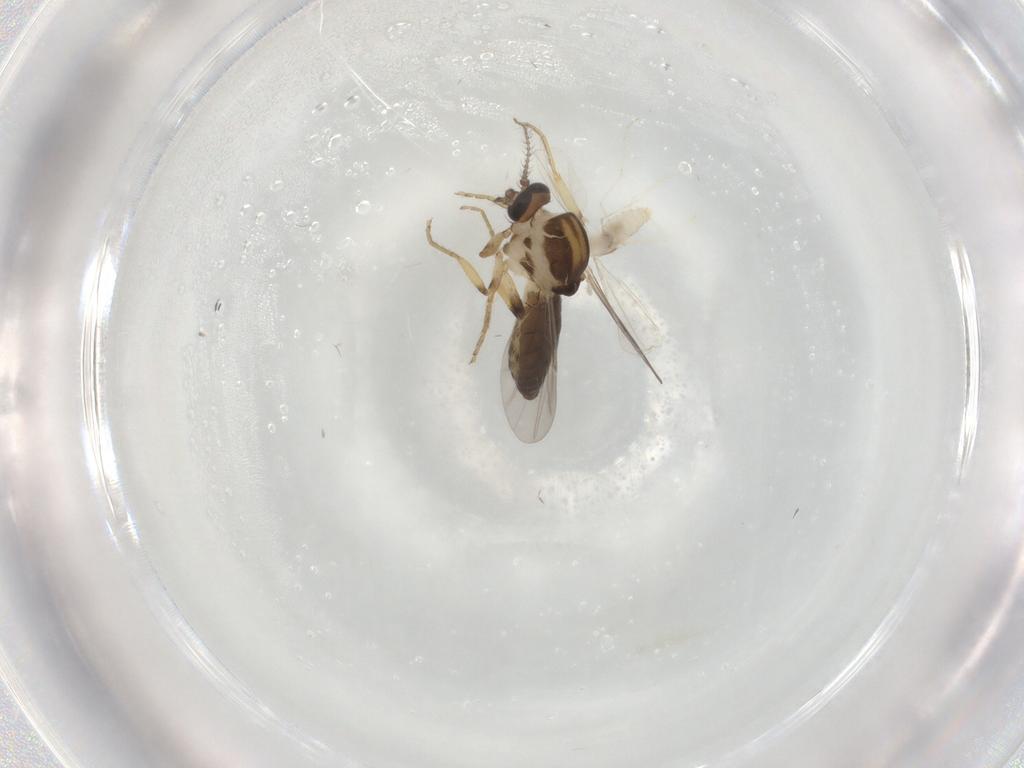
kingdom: Animalia
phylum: Arthropoda
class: Insecta
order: Diptera
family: Ceratopogonidae
